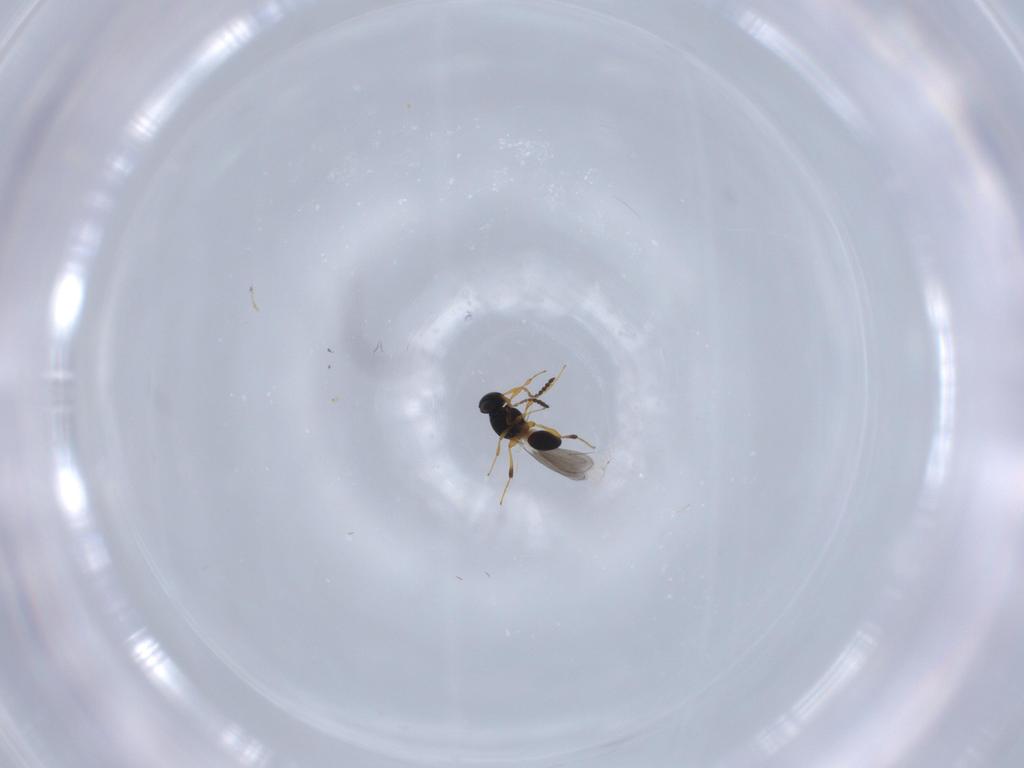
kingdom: Animalia
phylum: Arthropoda
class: Insecta
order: Hymenoptera
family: Platygastridae
